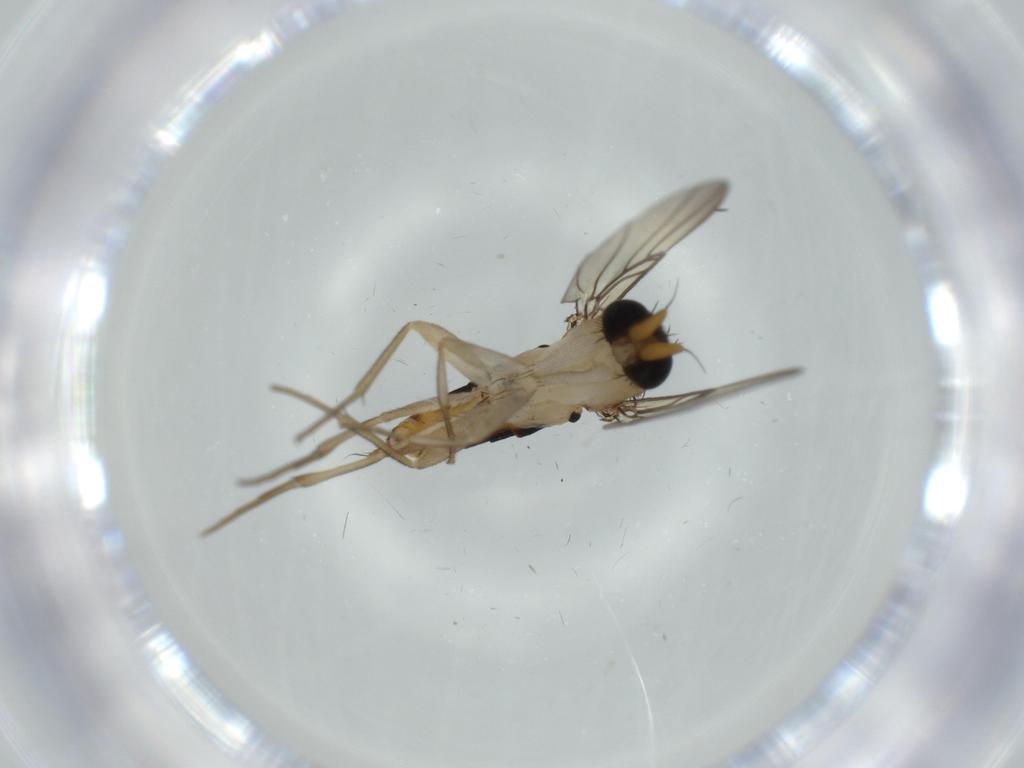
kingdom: Animalia
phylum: Arthropoda
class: Insecta
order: Diptera
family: Phoridae
